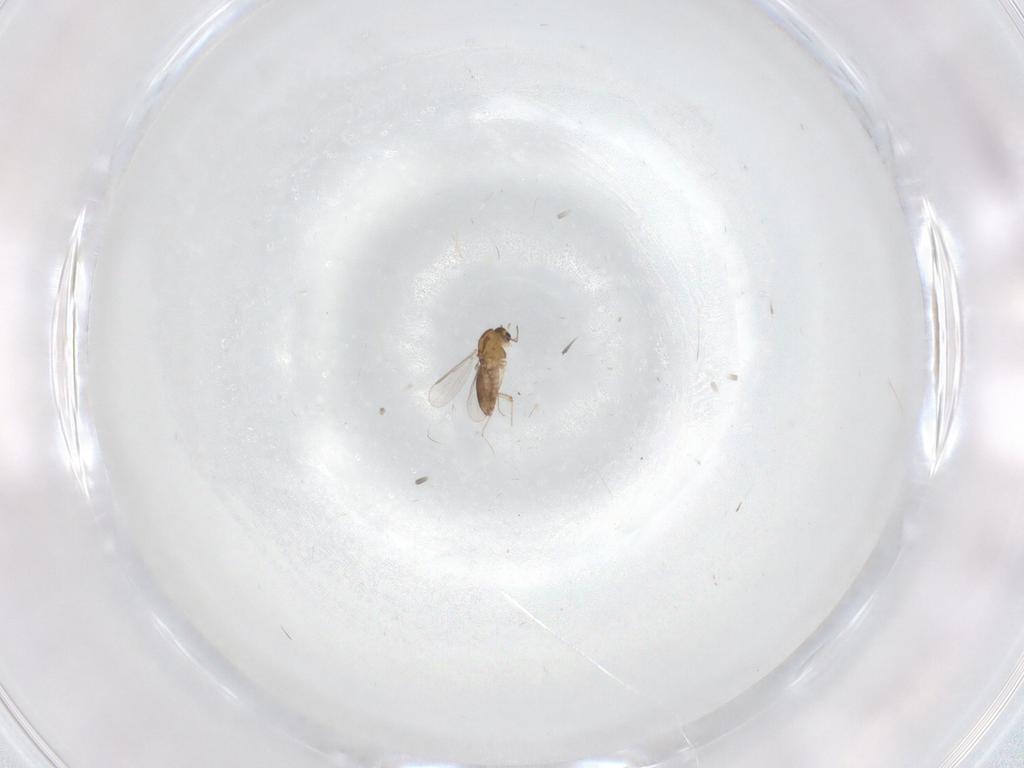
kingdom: Animalia
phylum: Arthropoda
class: Insecta
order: Diptera
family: Chironomidae
